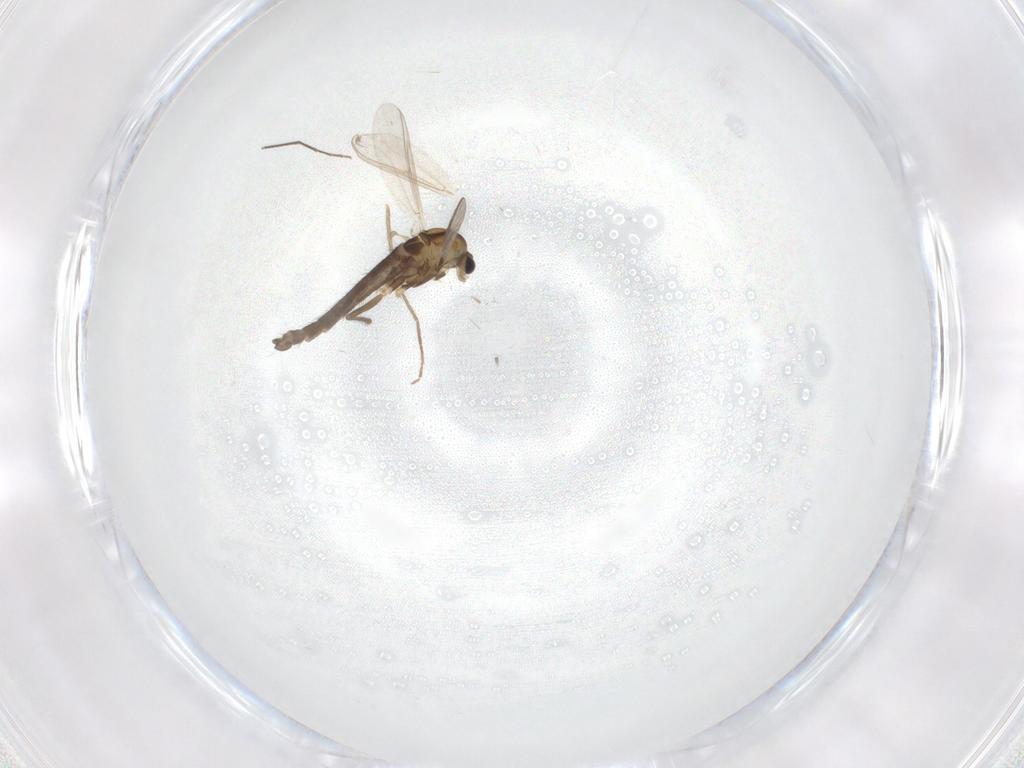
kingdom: Animalia
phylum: Arthropoda
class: Insecta
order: Diptera
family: Chironomidae
